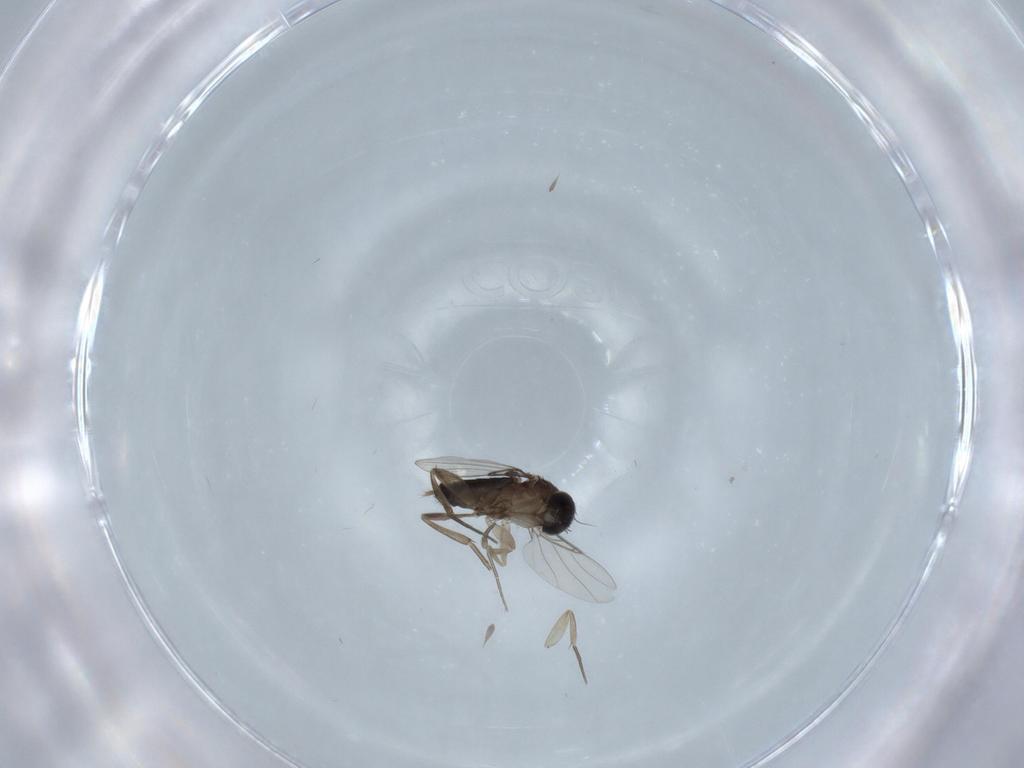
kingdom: Animalia
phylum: Arthropoda
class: Insecta
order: Diptera
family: Phoridae
